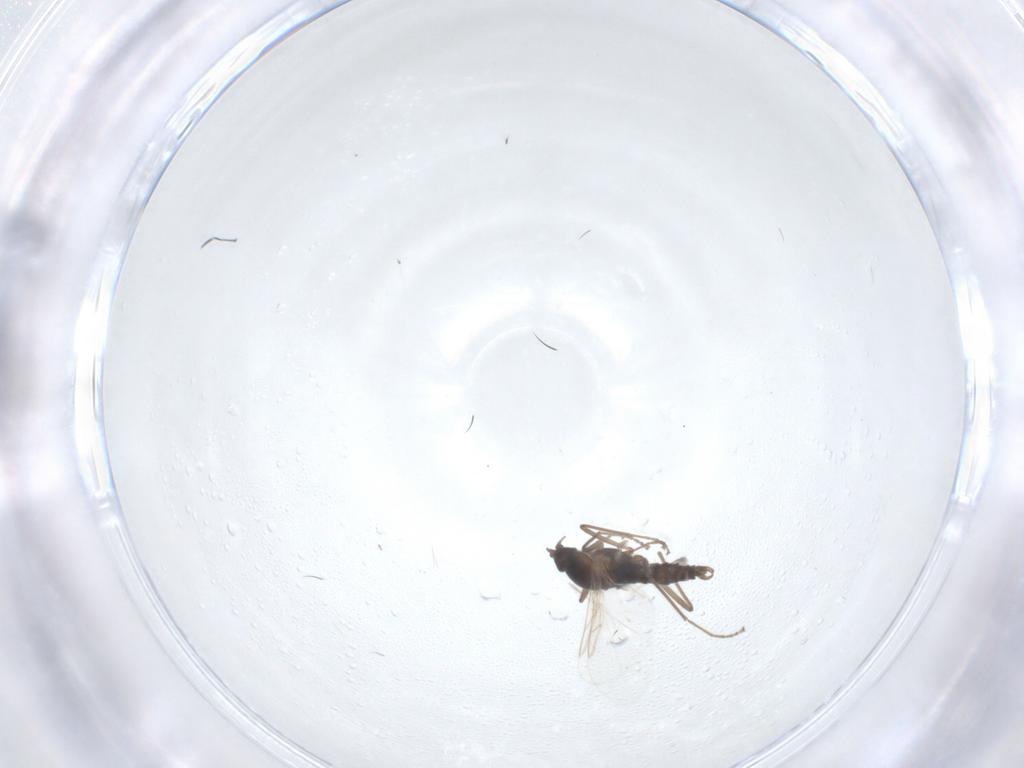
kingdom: Animalia
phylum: Arthropoda
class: Insecta
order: Diptera
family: Cecidomyiidae
